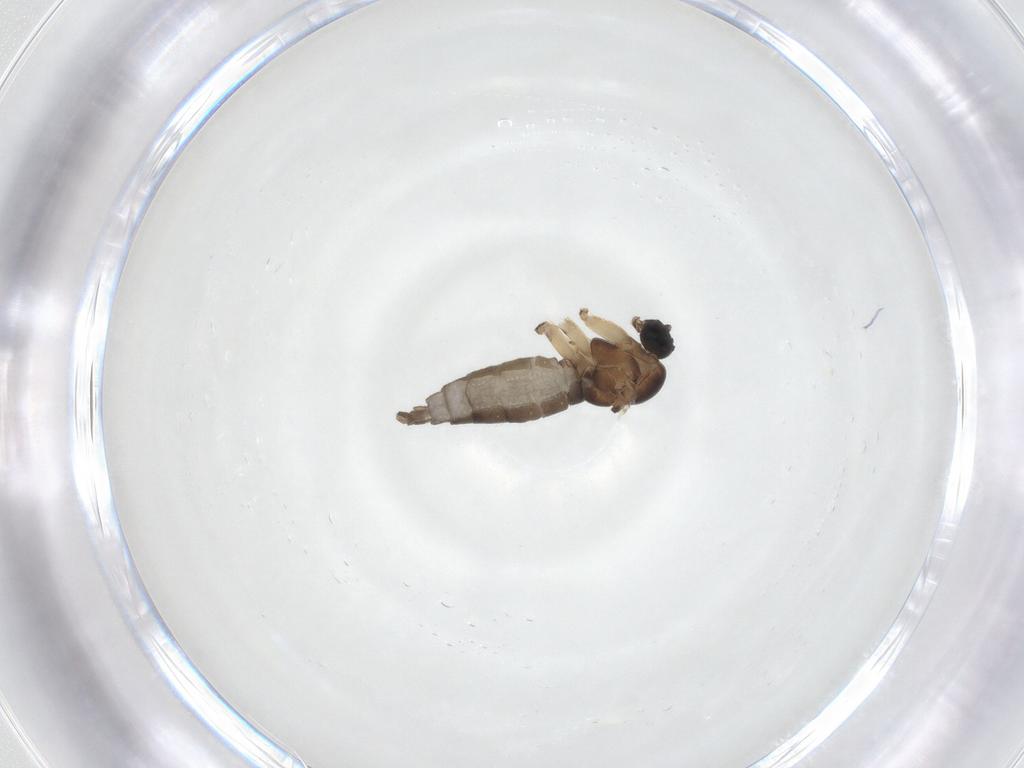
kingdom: Animalia
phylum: Arthropoda
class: Insecta
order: Diptera
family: Sciaridae
